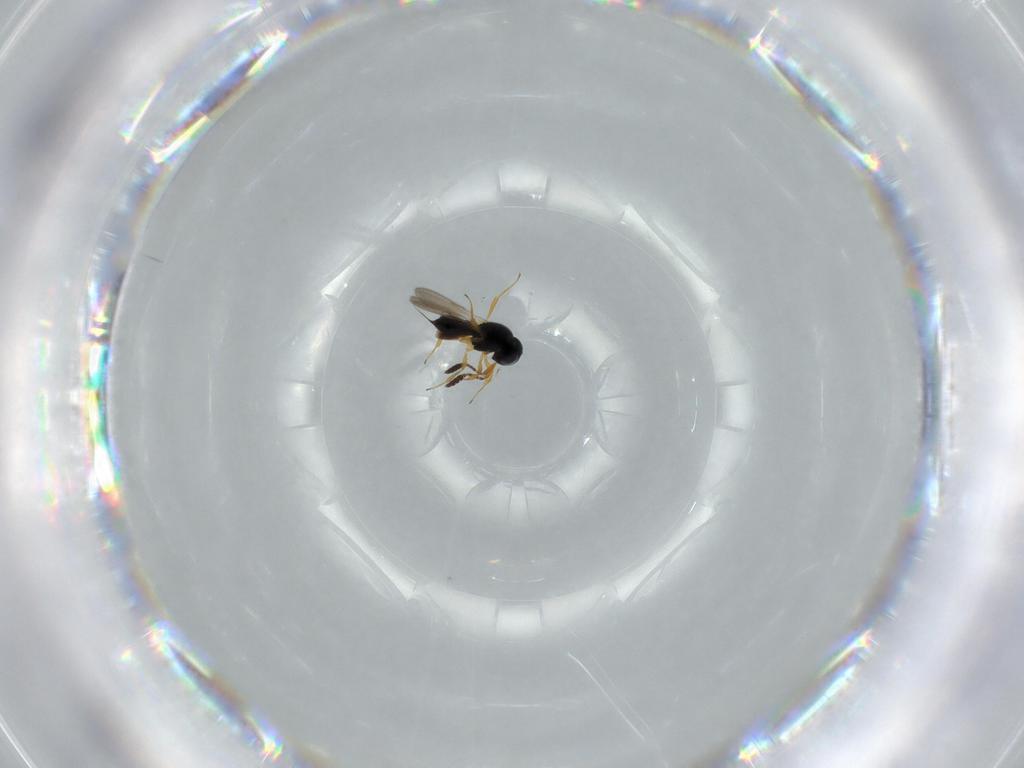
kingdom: Animalia
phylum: Arthropoda
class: Insecta
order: Hymenoptera
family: Scelionidae
